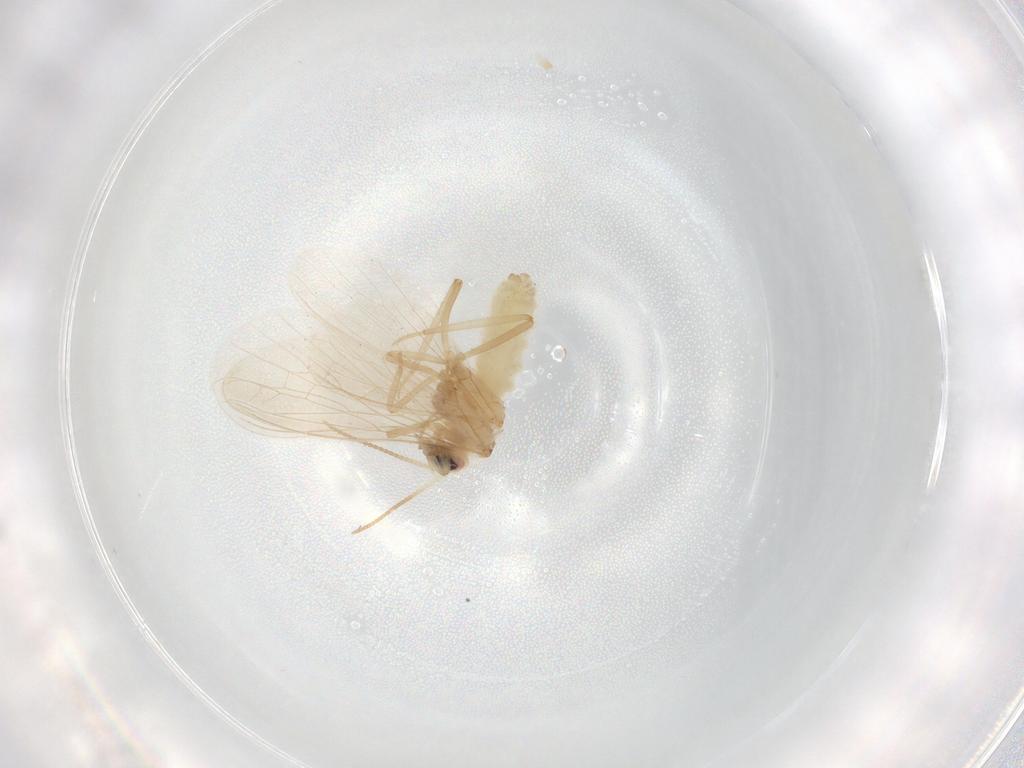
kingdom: Animalia
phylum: Arthropoda
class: Insecta
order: Neuroptera
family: Coniopterygidae
